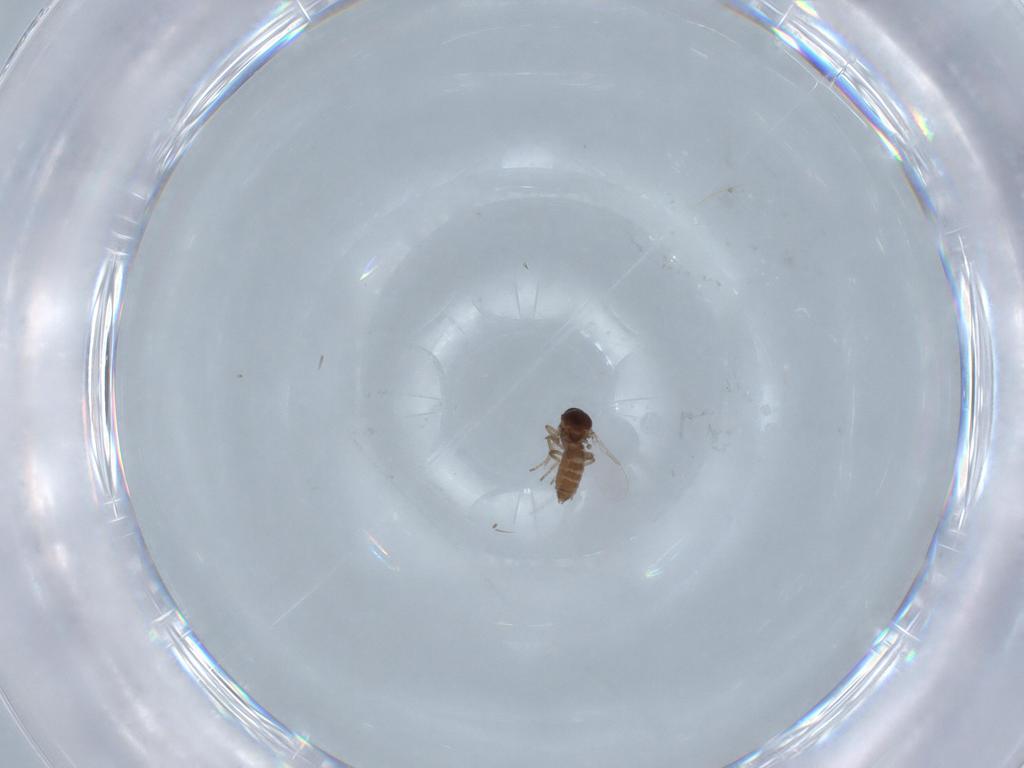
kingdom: Animalia
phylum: Arthropoda
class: Insecta
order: Diptera
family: Ceratopogonidae
